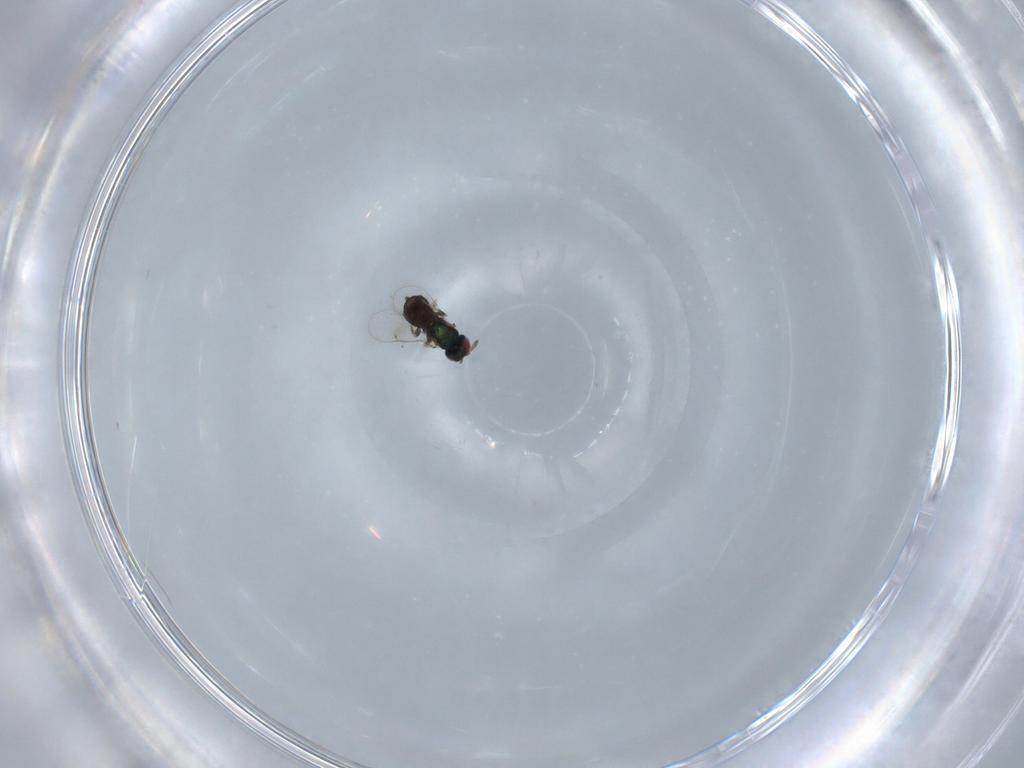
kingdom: Animalia
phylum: Arthropoda
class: Insecta
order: Hymenoptera
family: Eulophidae
